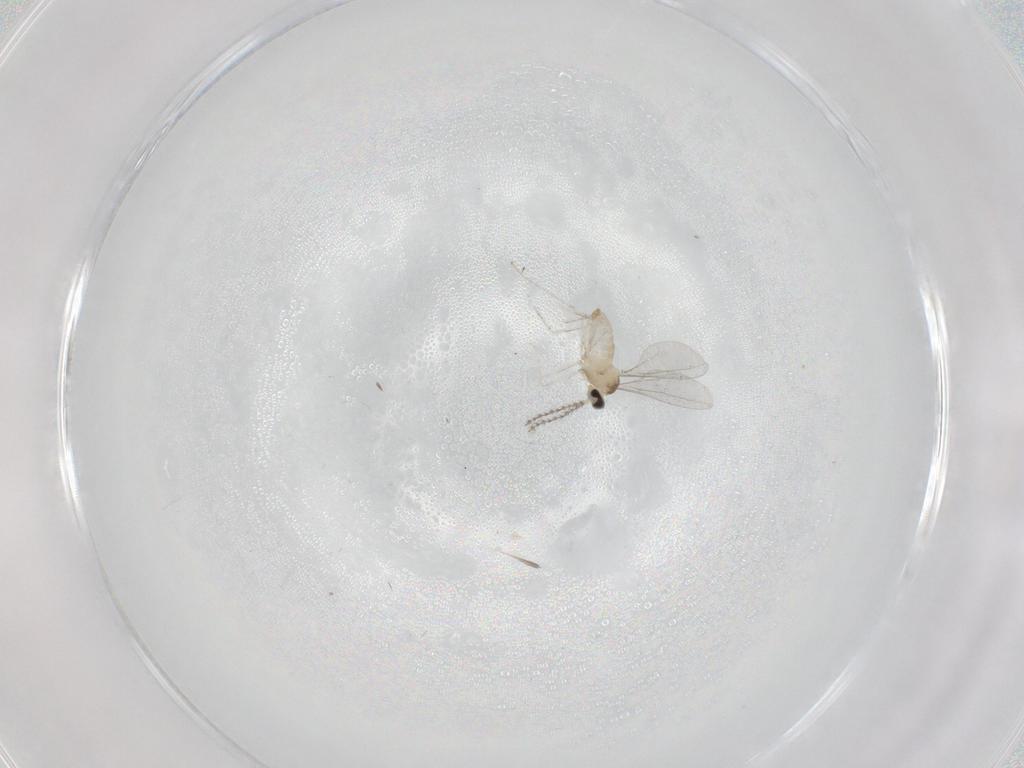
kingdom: Animalia
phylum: Arthropoda
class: Insecta
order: Diptera
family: Cecidomyiidae
